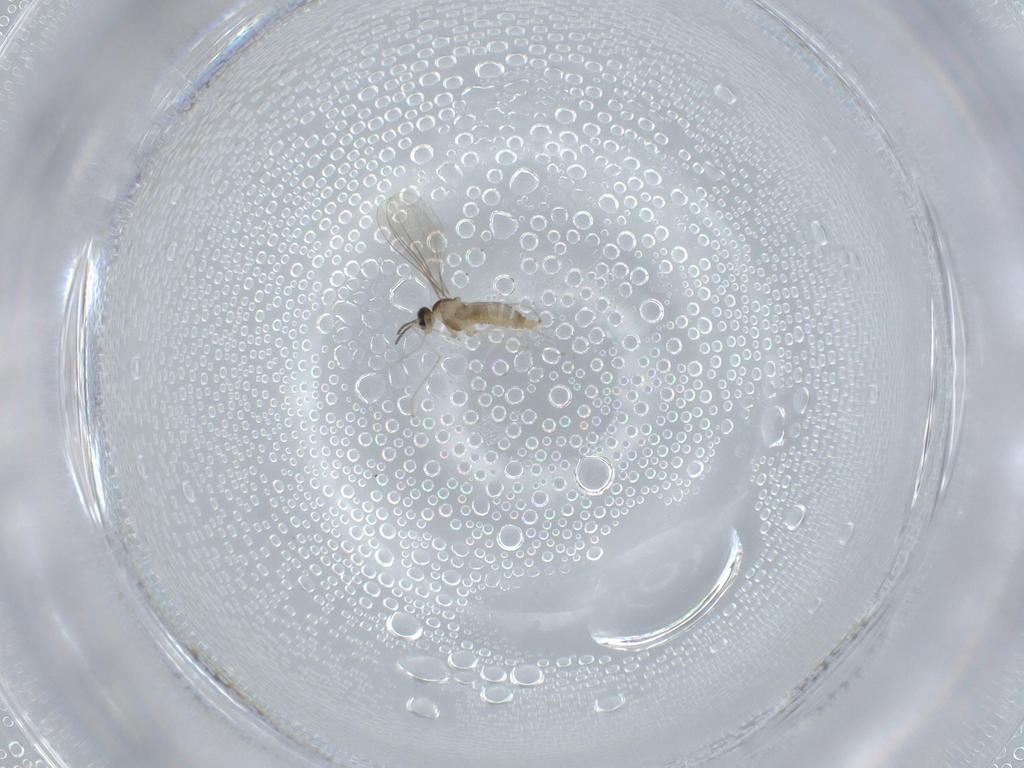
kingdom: Animalia
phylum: Arthropoda
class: Insecta
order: Diptera
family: Cecidomyiidae
